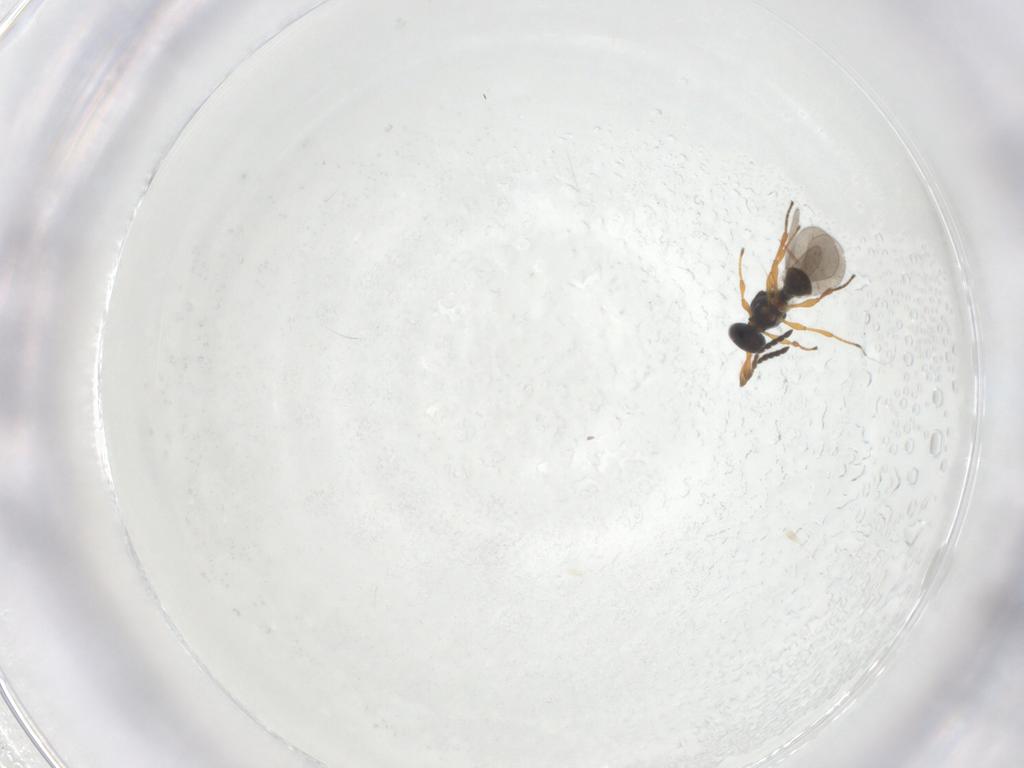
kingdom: Animalia
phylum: Arthropoda
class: Insecta
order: Hymenoptera
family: Platygastridae
